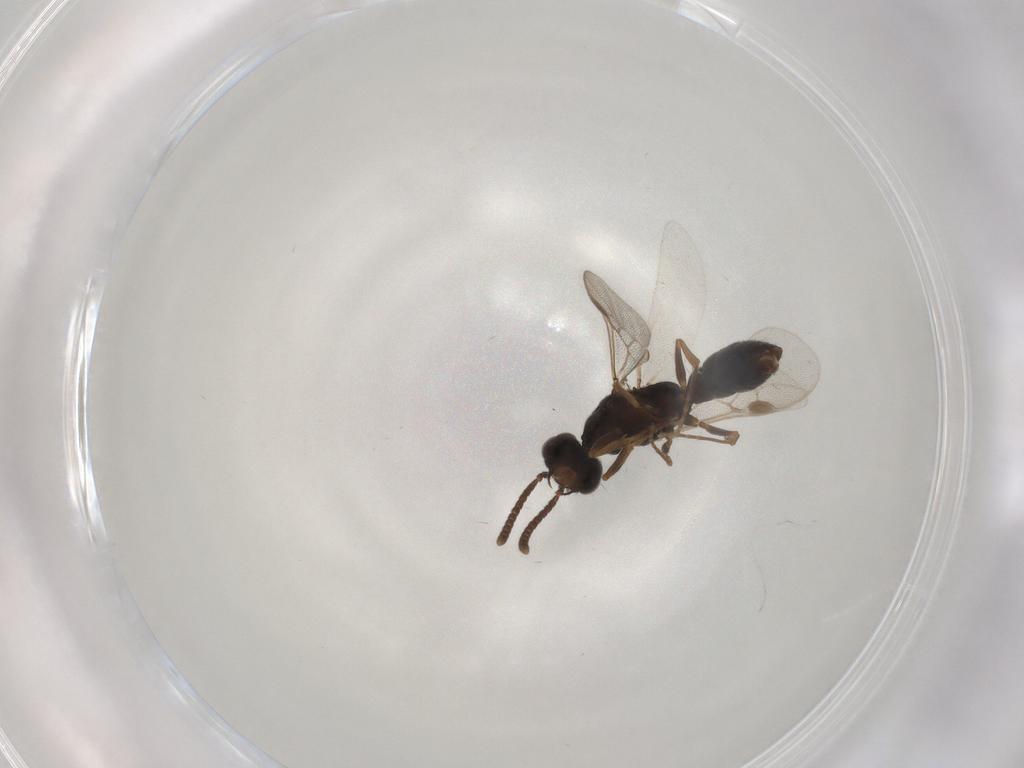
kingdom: Animalia
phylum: Arthropoda
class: Insecta
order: Hymenoptera
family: Formicidae
